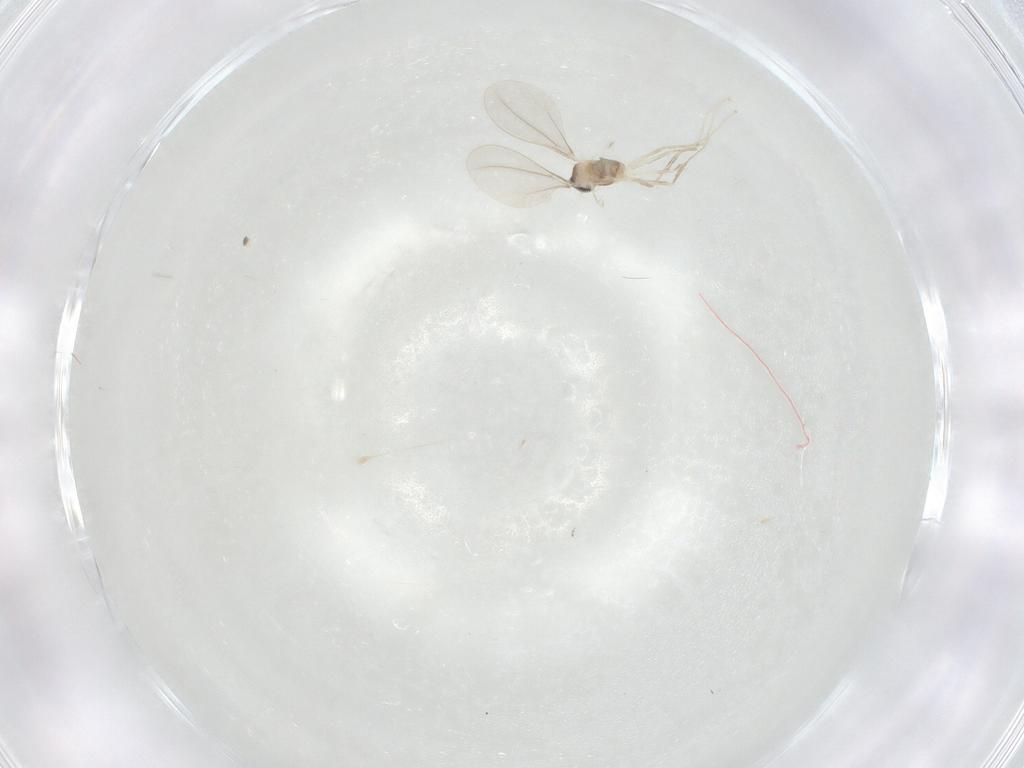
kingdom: Animalia
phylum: Arthropoda
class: Insecta
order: Diptera
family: Cecidomyiidae
